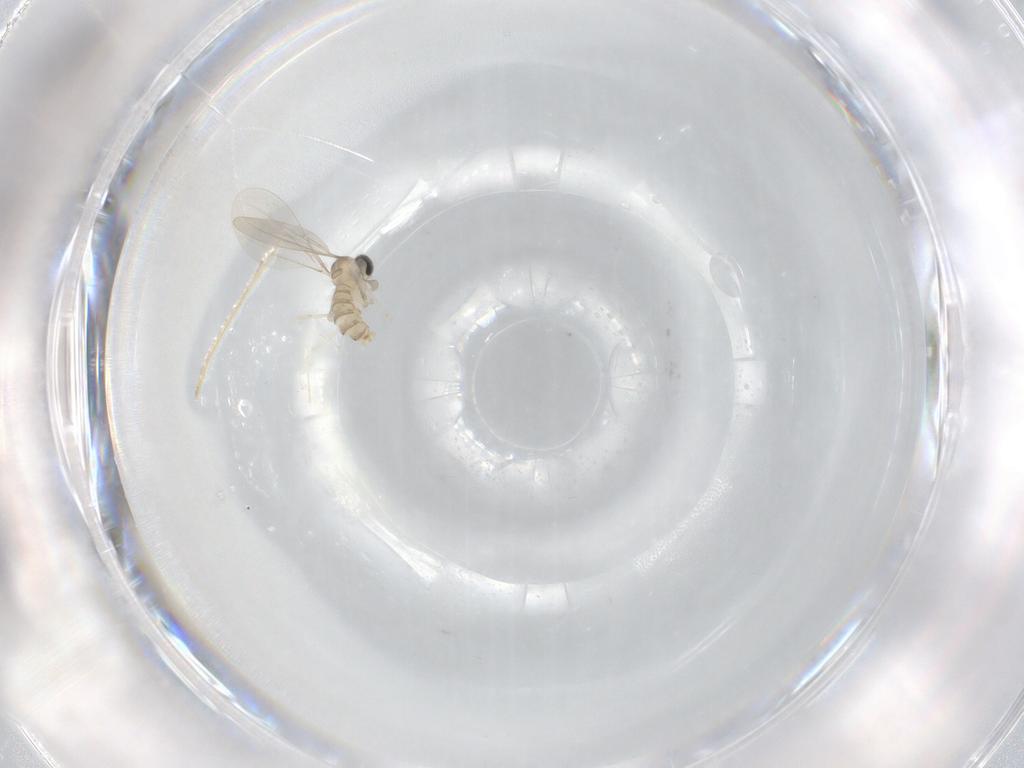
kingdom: Animalia
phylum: Arthropoda
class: Insecta
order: Diptera
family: Cecidomyiidae
